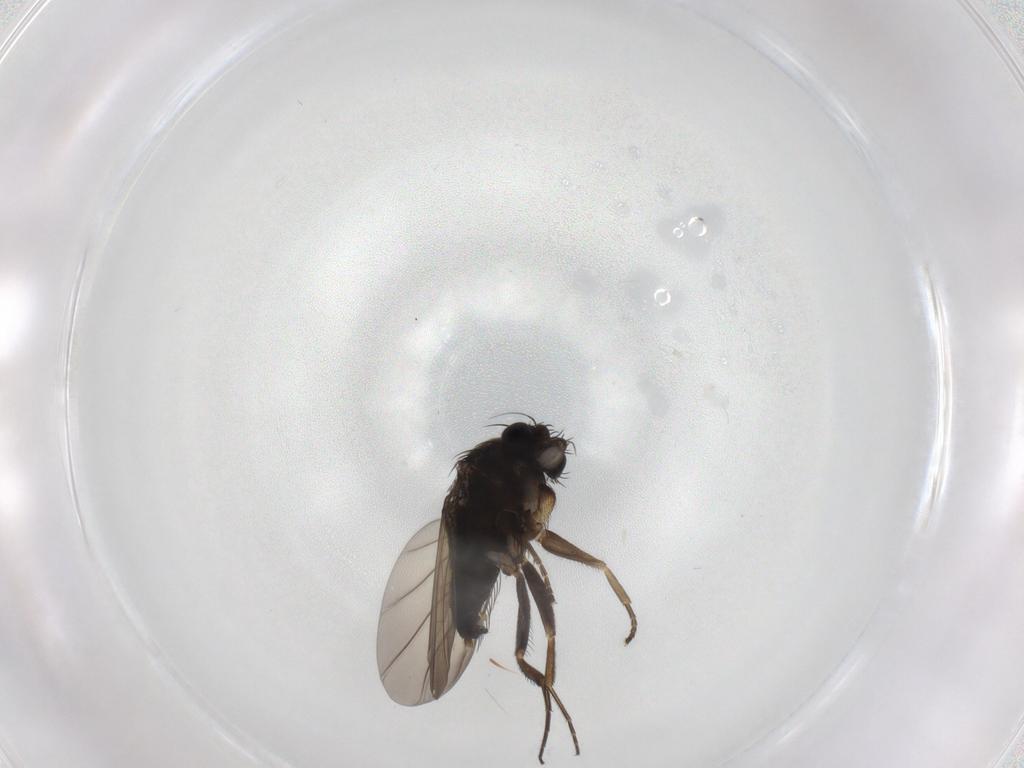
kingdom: Animalia
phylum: Arthropoda
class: Insecta
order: Diptera
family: Phoridae
